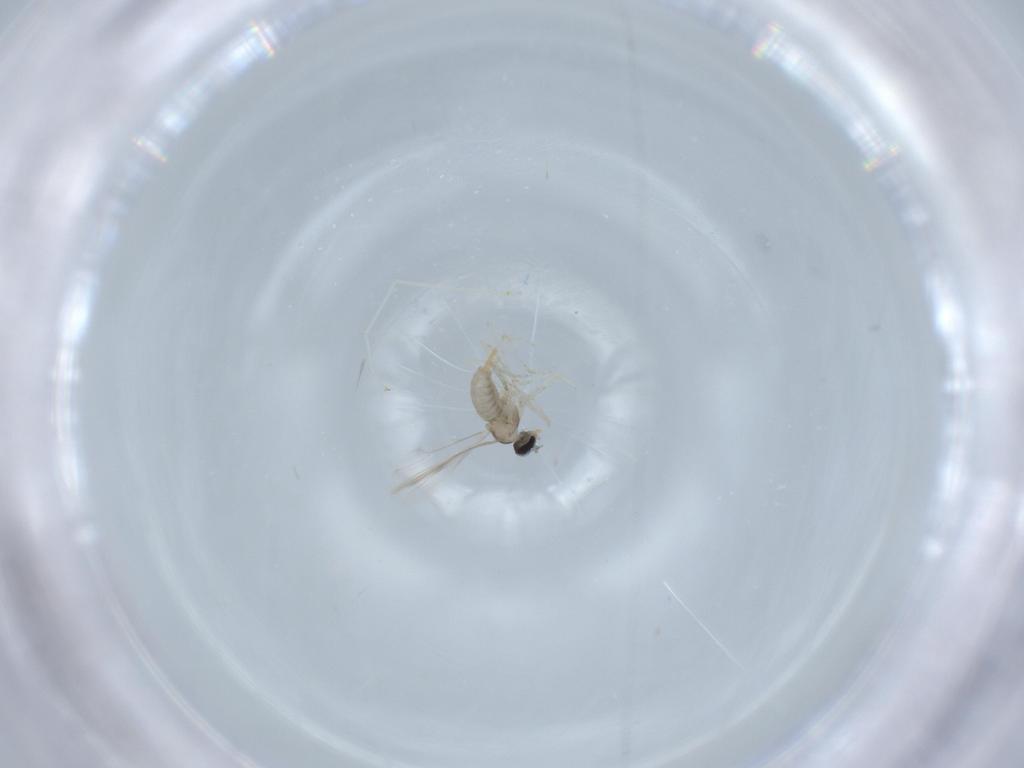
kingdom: Animalia
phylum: Arthropoda
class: Insecta
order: Diptera
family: Cecidomyiidae
